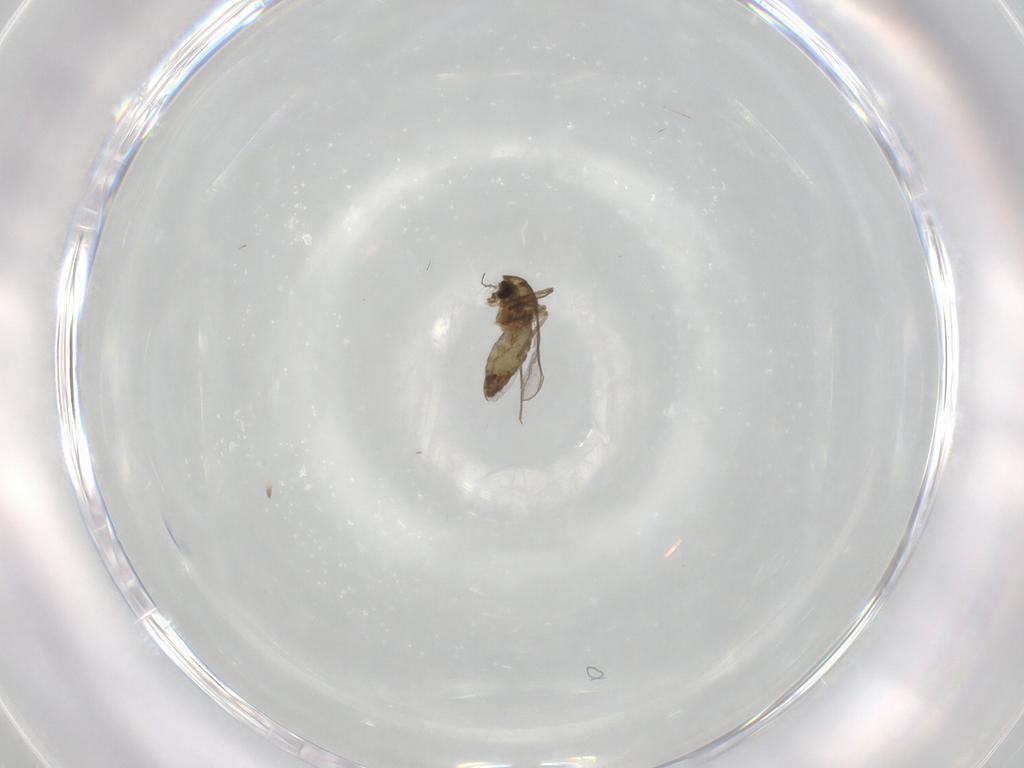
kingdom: Animalia
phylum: Arthropoda
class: Insecta
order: Diptera
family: Chironomidae
